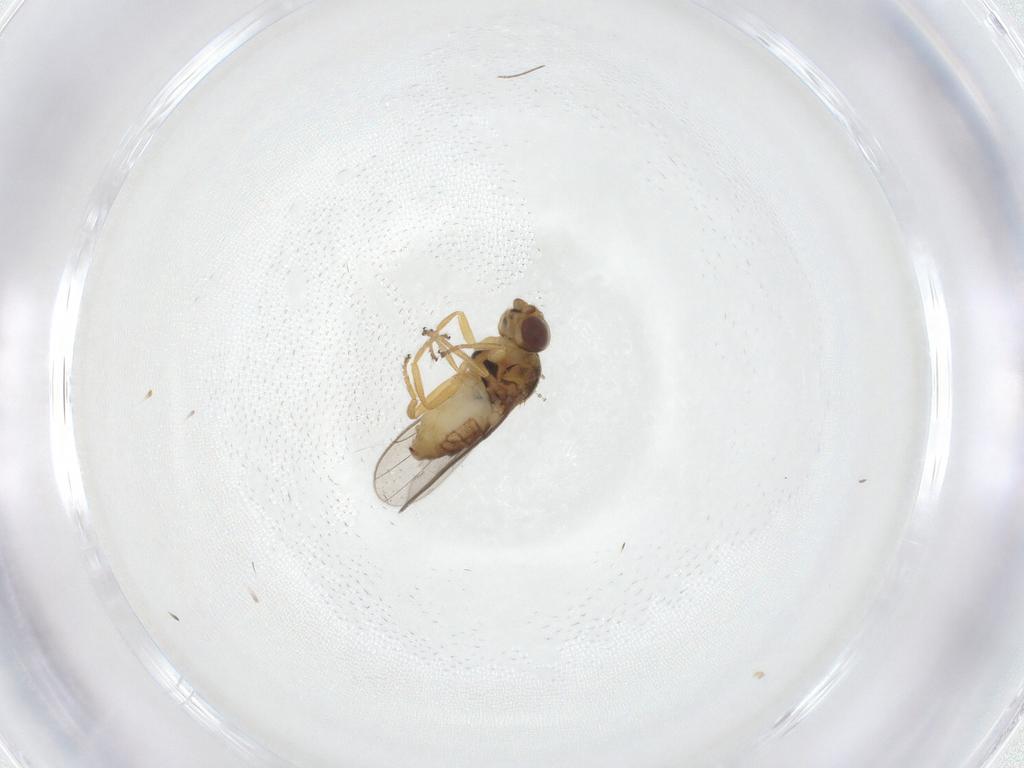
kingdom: Animalia
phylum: Arthropoda
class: Insecta
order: Diptera
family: Chloropidae
